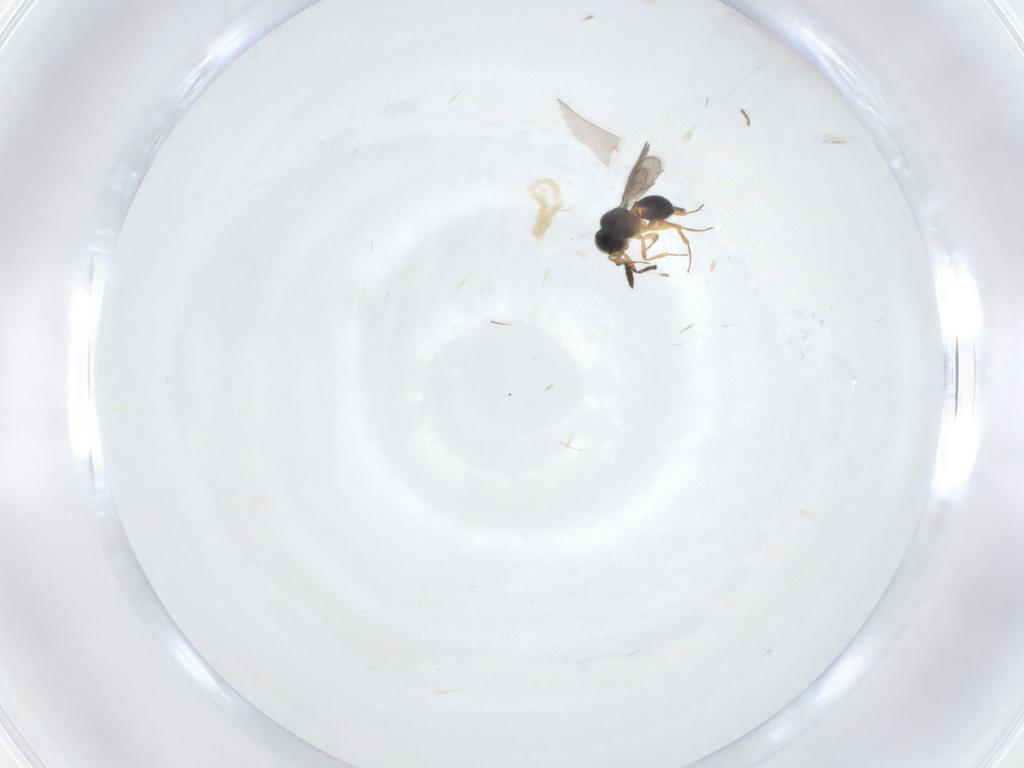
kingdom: Animalia
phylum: Arthropoda
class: Insecta
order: Hymenoptera
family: Scelionidae
